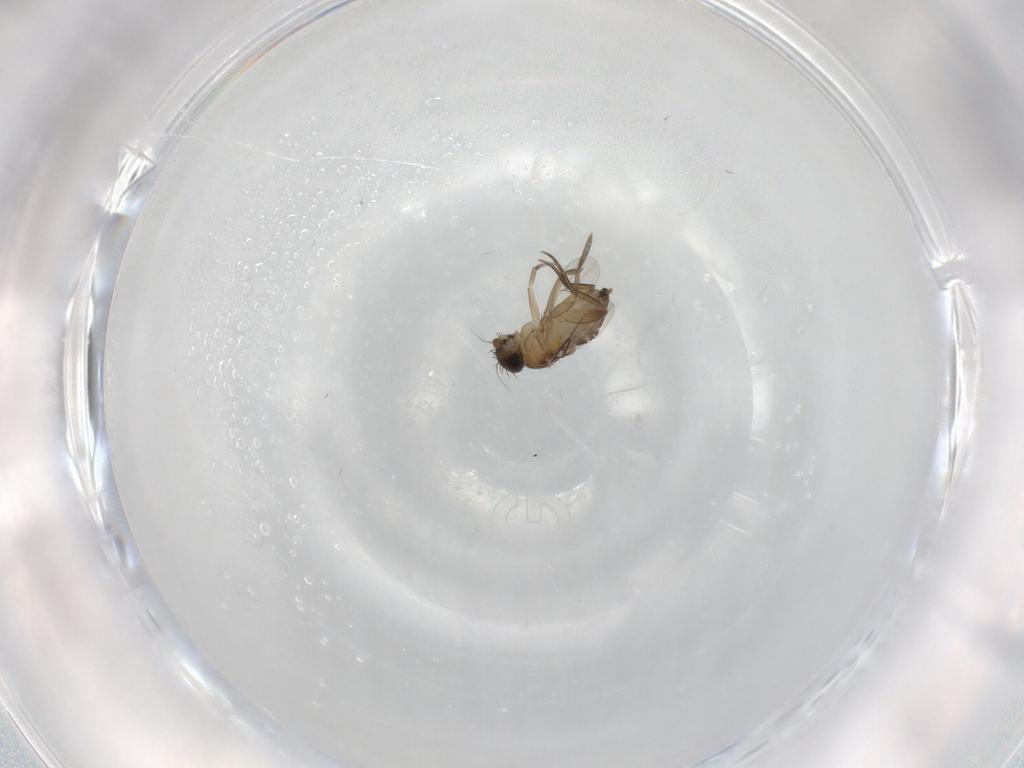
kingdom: Animalia
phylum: Arthropoda
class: Insecta
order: Diptera
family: Phoridae
